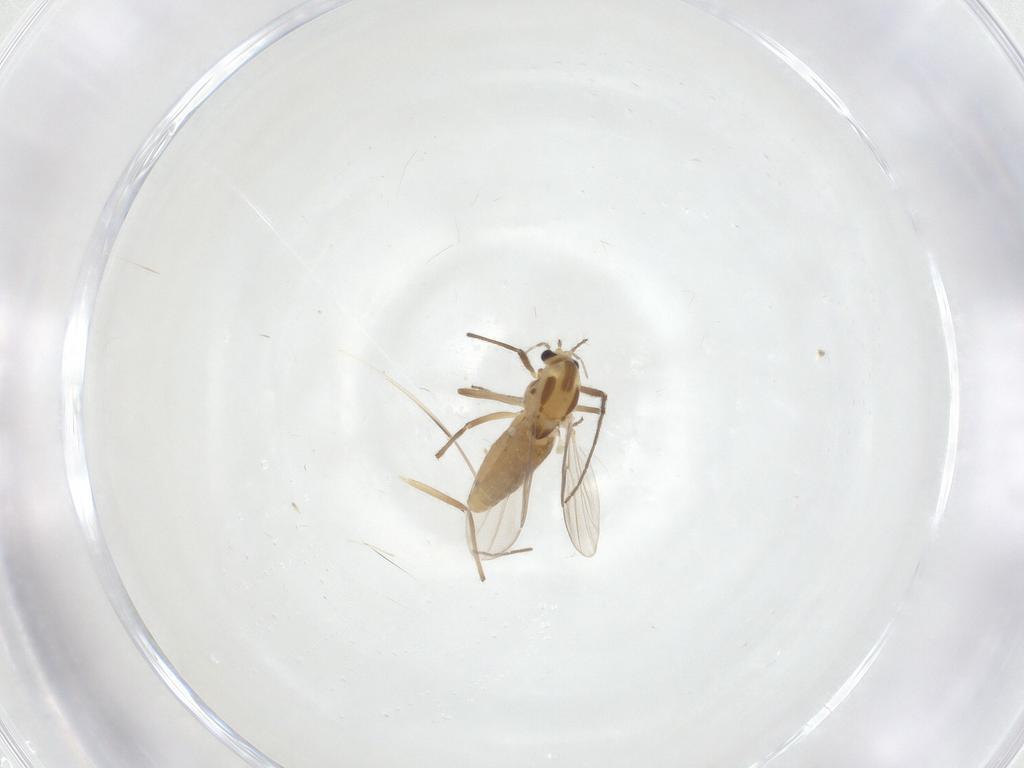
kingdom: Animalia
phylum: Arthropoda
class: Insecta
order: Diptera
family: Chironomidae
